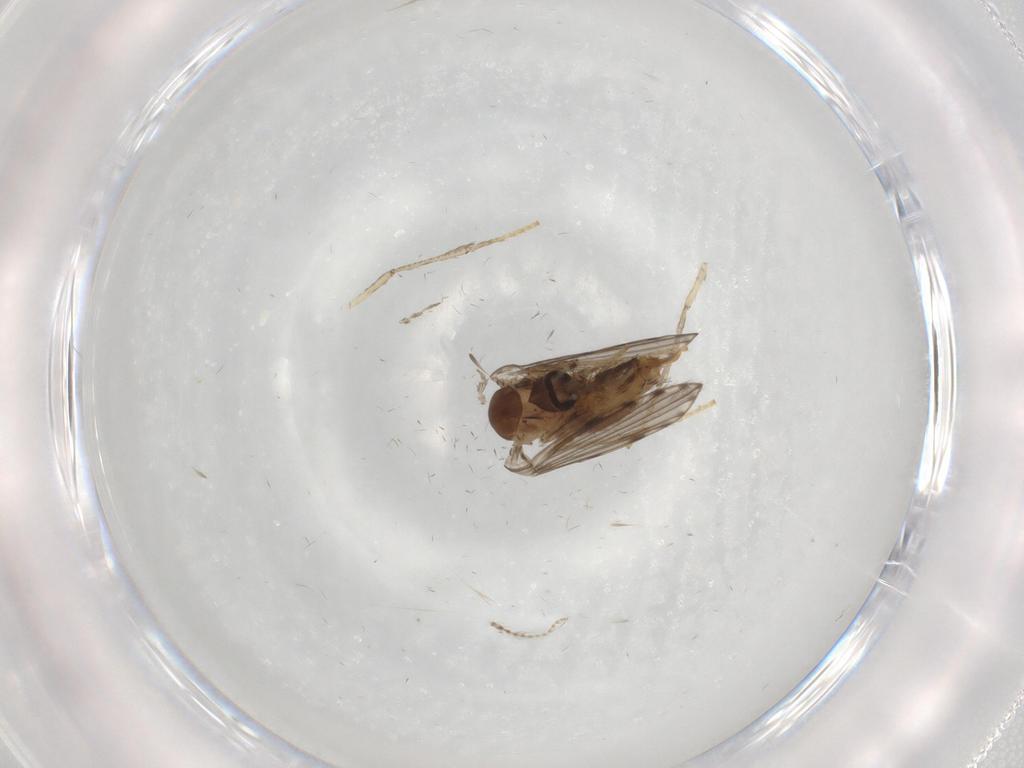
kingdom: Animalia
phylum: Arthropoda
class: Insecta
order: Diptera
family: Psychodidae
